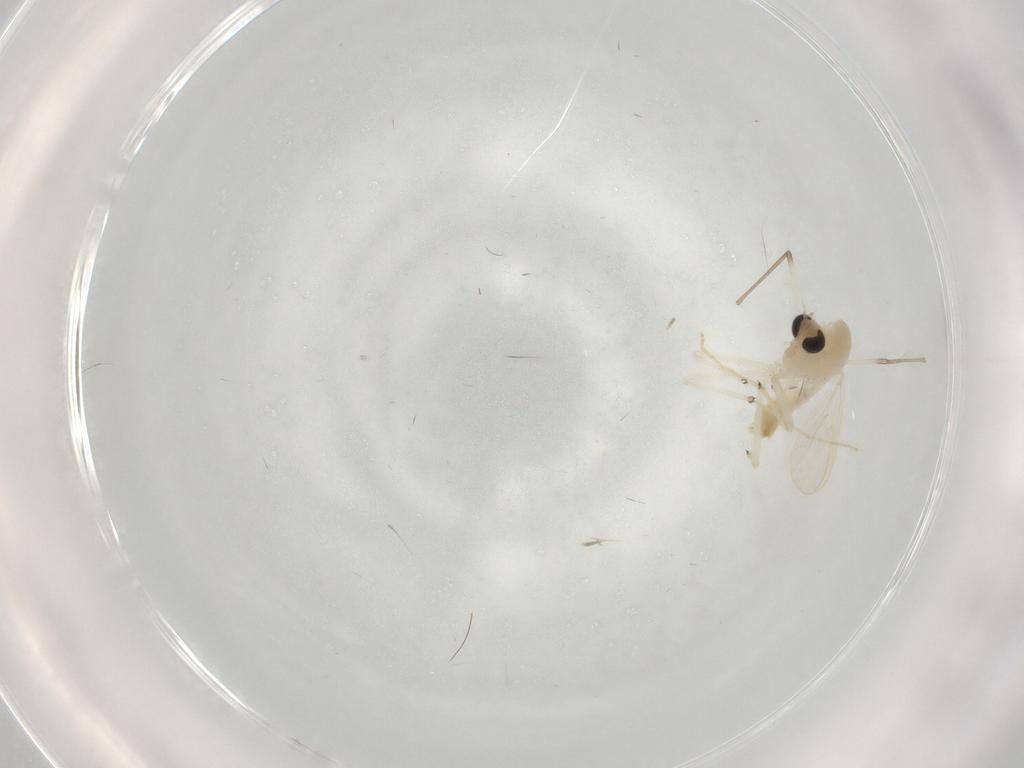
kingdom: Animalia
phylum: Arthropoda
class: Insecta
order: Diptera
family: Chironomidae
